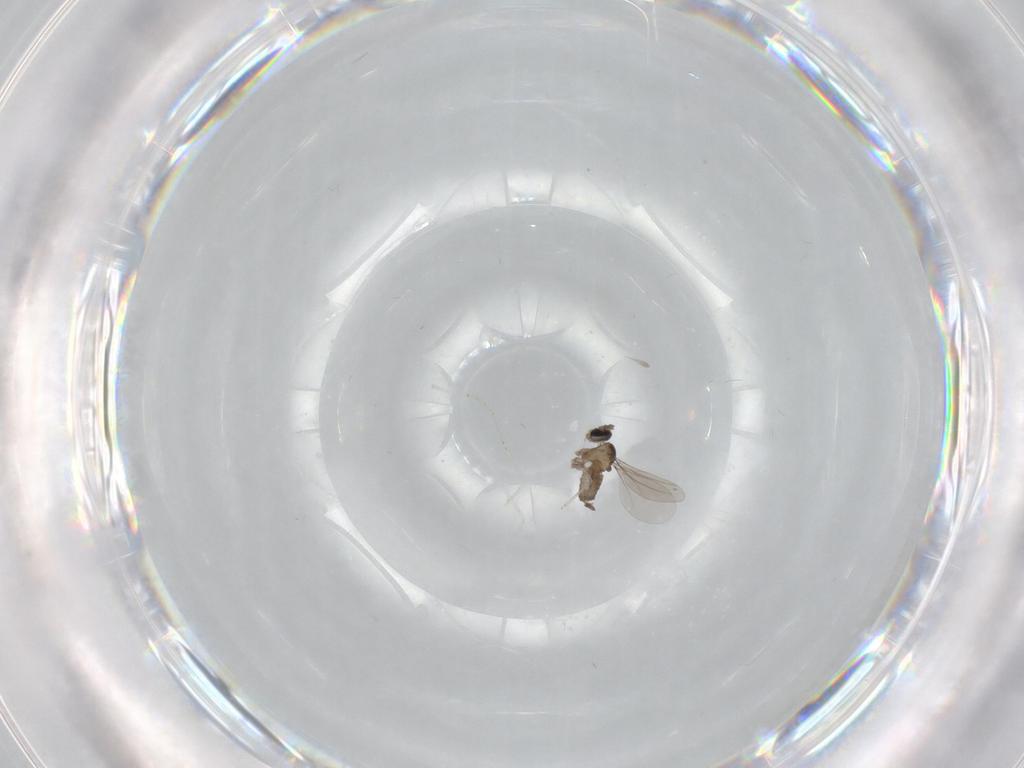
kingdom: Animalia
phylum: Arthropoda
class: Insecta
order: Diptera
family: Cecidomyiidae
